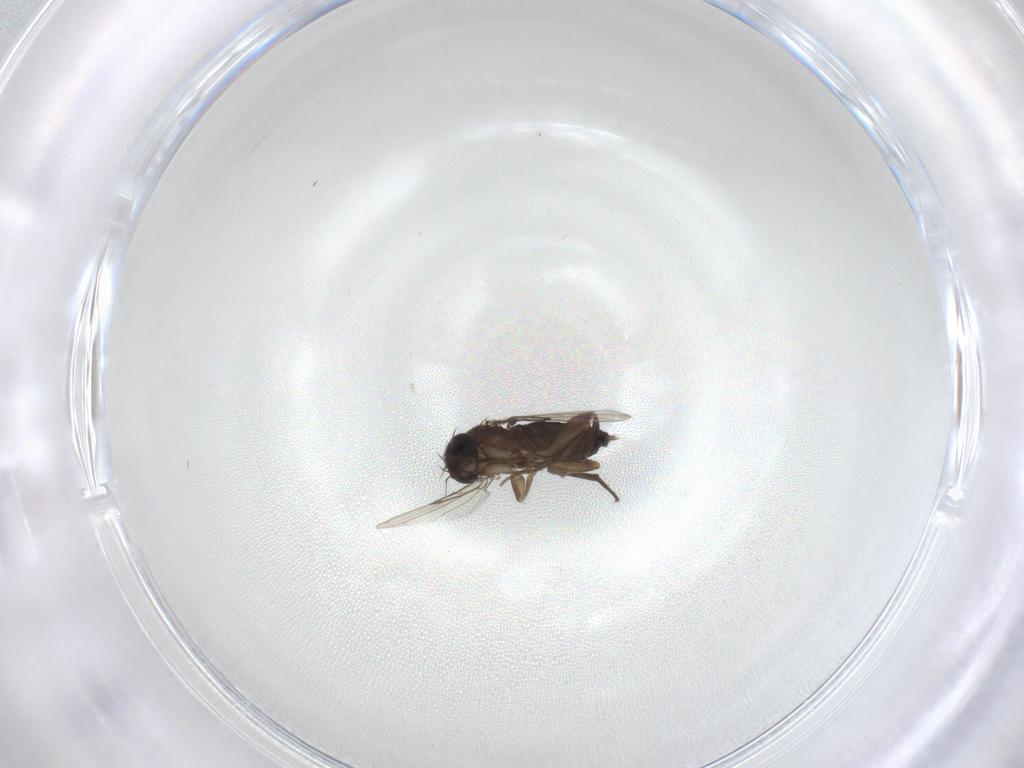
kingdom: Animalia
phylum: Arthropoda
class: Insecta
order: Diptera
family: Phoridae
